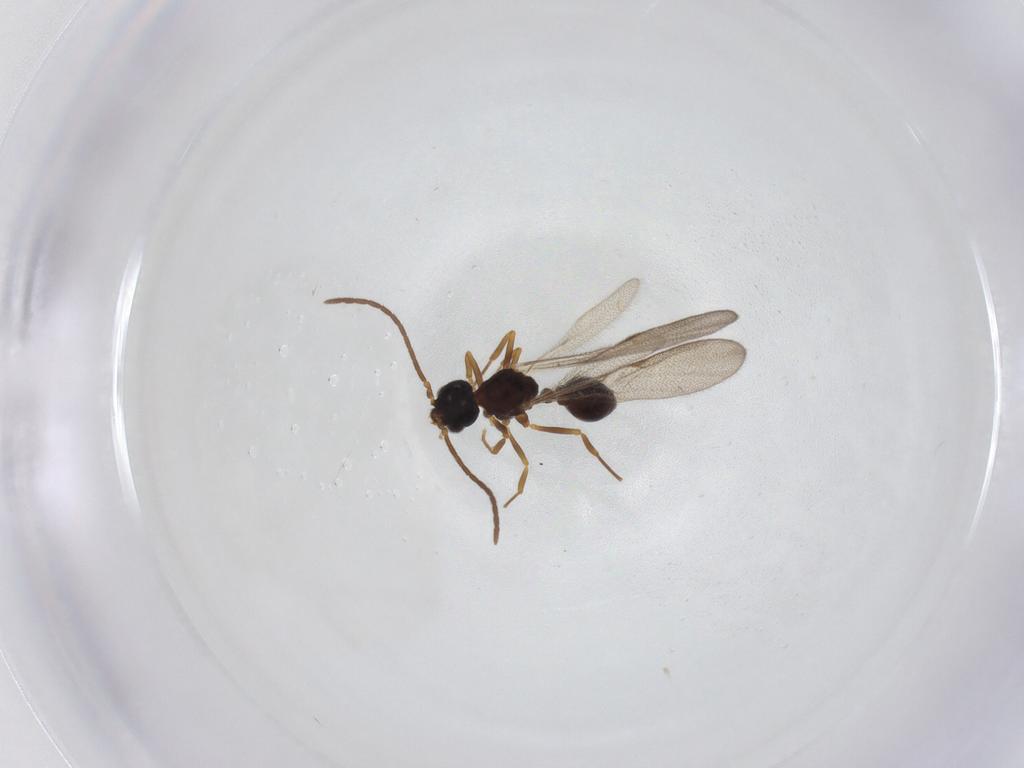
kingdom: Animalia
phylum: Arthropoda
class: Insecta
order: Hymenoptera
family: Formicidae
